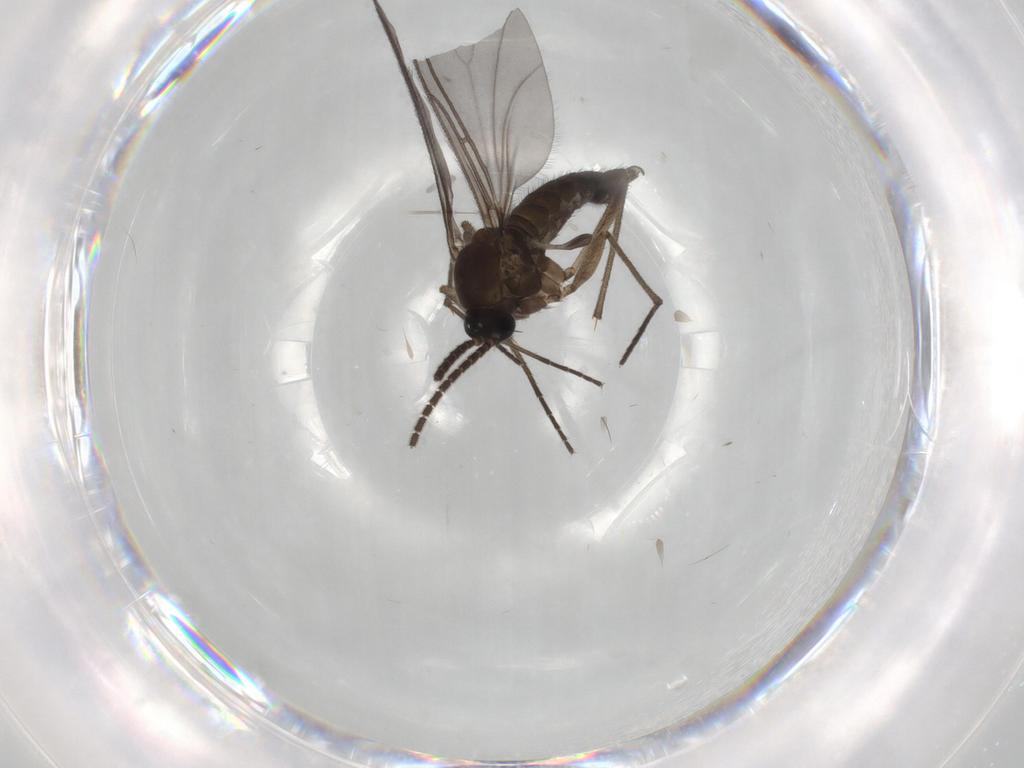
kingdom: Animalia
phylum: Arthropoda
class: Insecta
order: Diptera
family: Sciaridae
